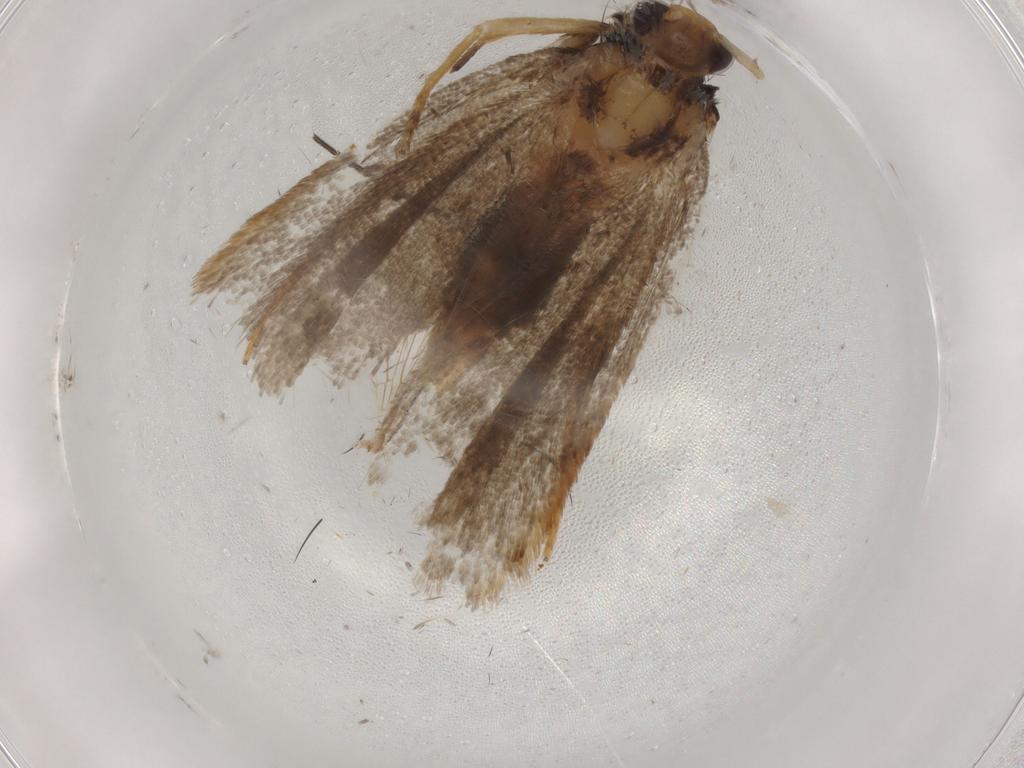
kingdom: Animalia
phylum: Arthropoda
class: Insecta
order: Lepidoptera
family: Lecithoceridae
